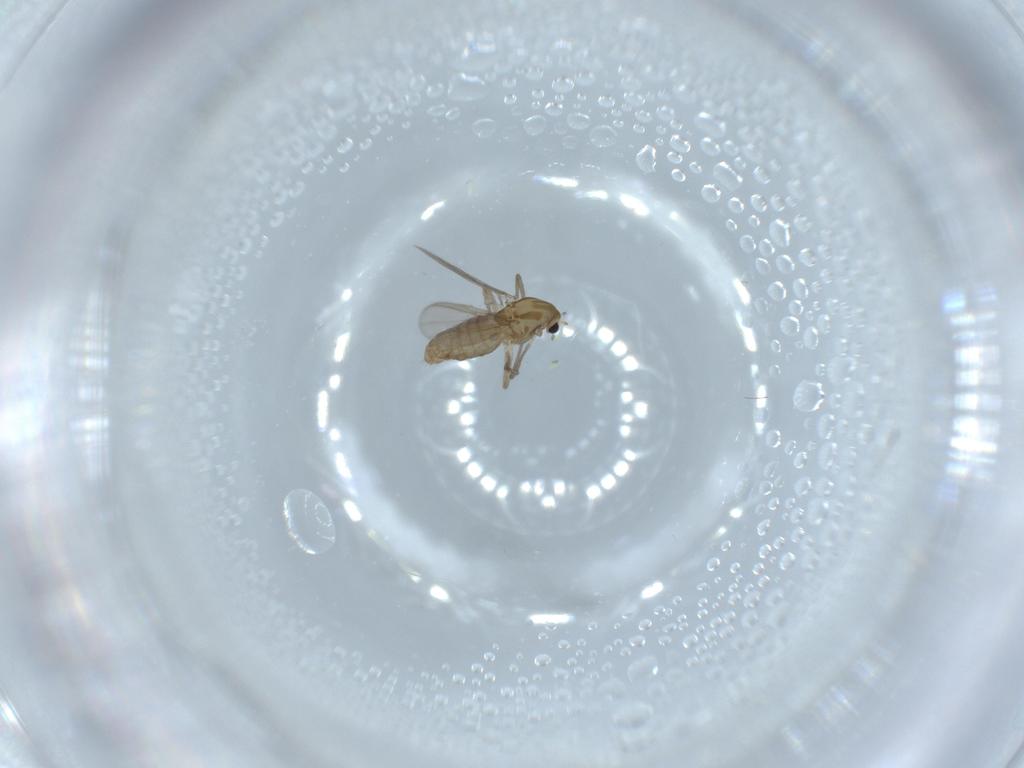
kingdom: Animalia
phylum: Arthropoda
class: Insecta
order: Diptera
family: Chironomidae
